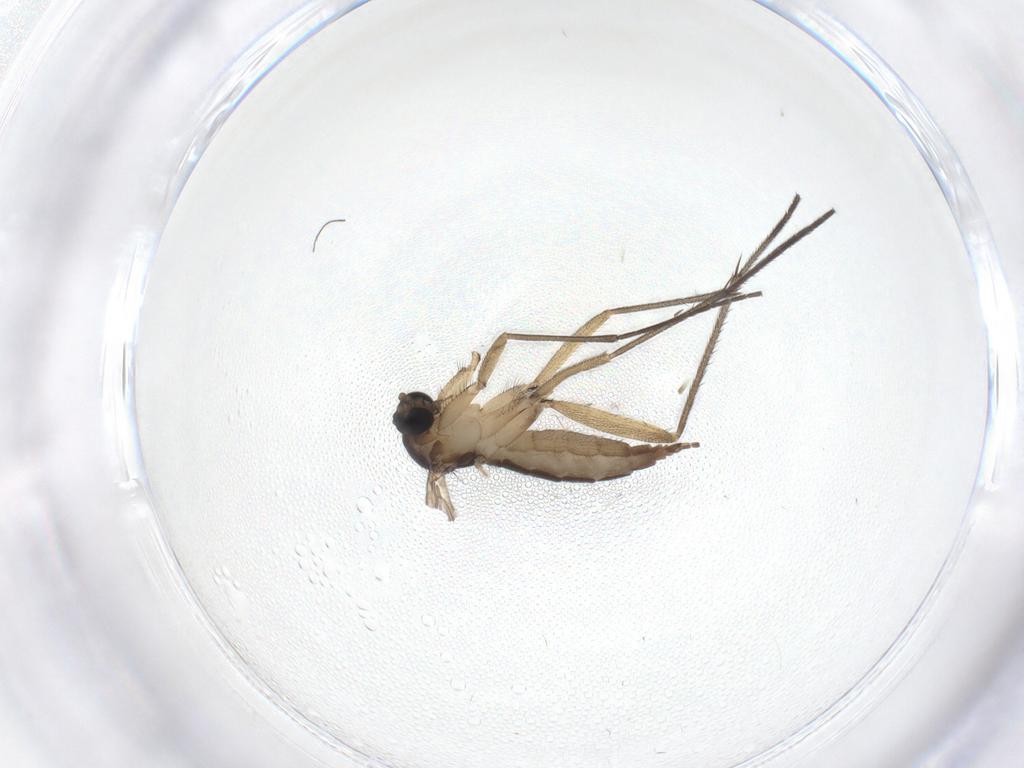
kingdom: Animalia
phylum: Arthropoda
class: Insecta
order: Diptera
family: Sciaridae
